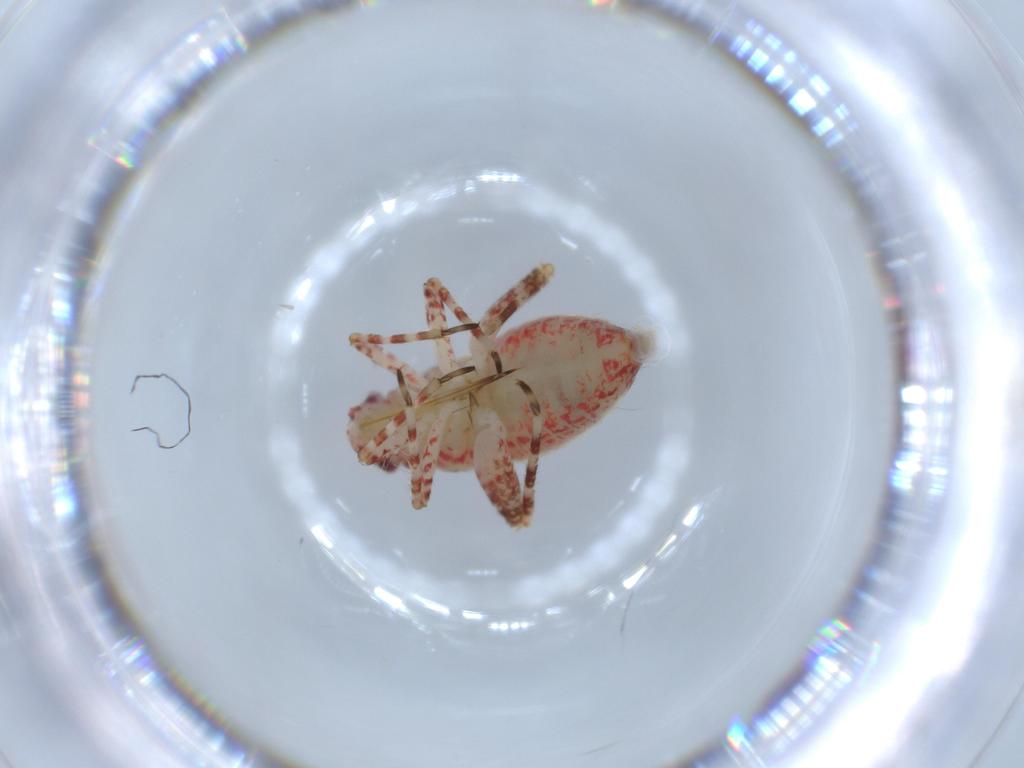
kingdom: Animalia
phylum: Arthropoda
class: Insecta
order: Hemiptera
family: Miridae
